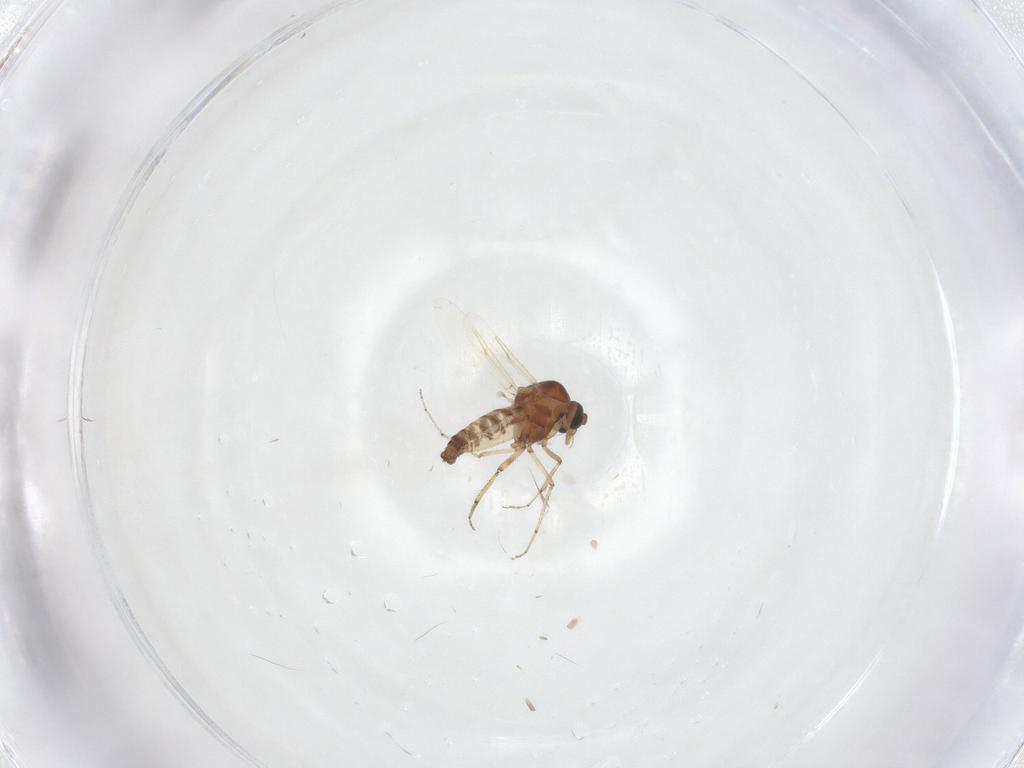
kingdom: Animalia
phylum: Arthropoda
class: Insecta
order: Diptera
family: Ceratopogonidae
